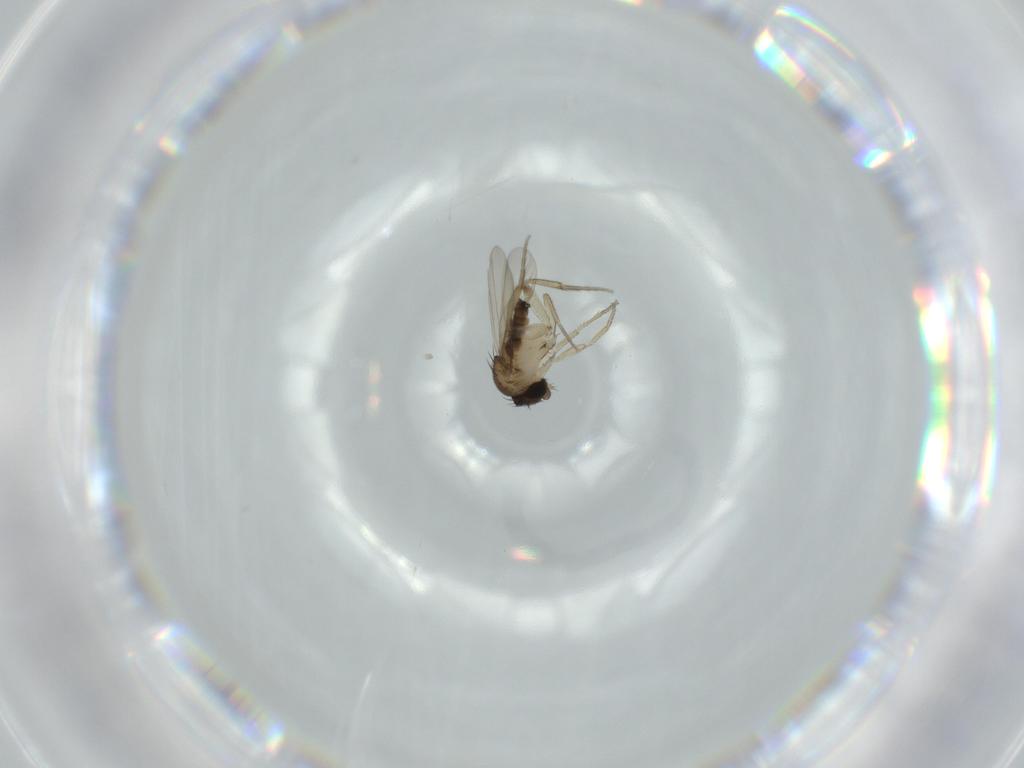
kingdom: Animalia
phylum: Arthropoda
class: Insecta
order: Diptera
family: Phoridae
